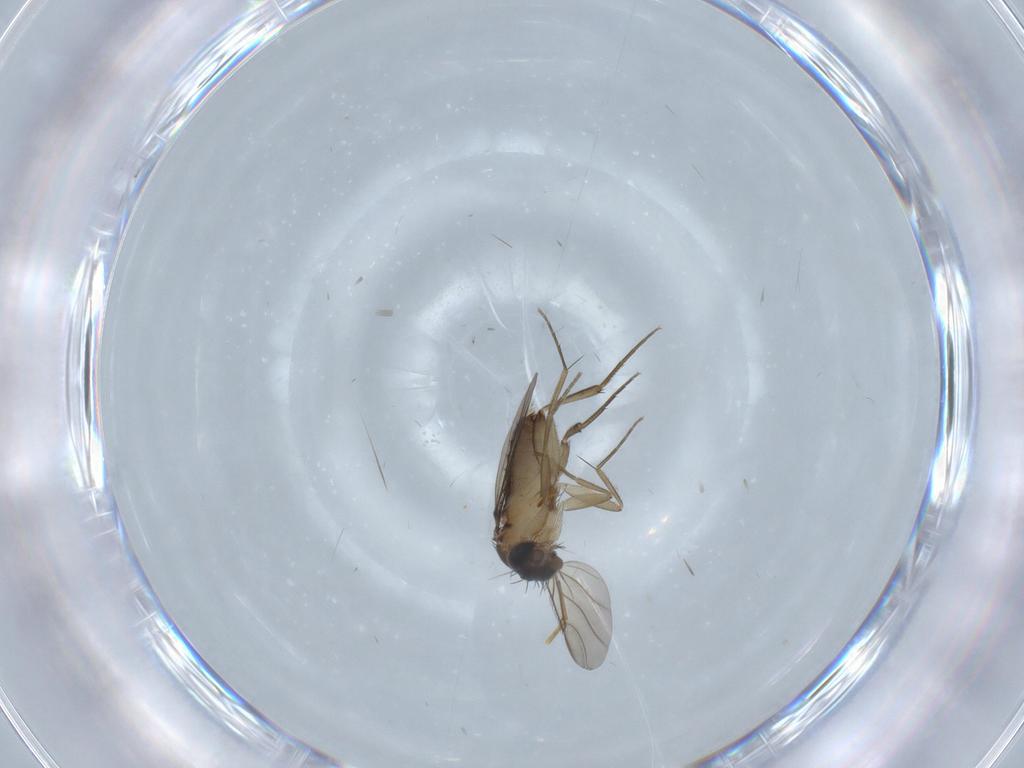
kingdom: Animalia
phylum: Arthropoda
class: Insecta
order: Diptera
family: Phoridae
